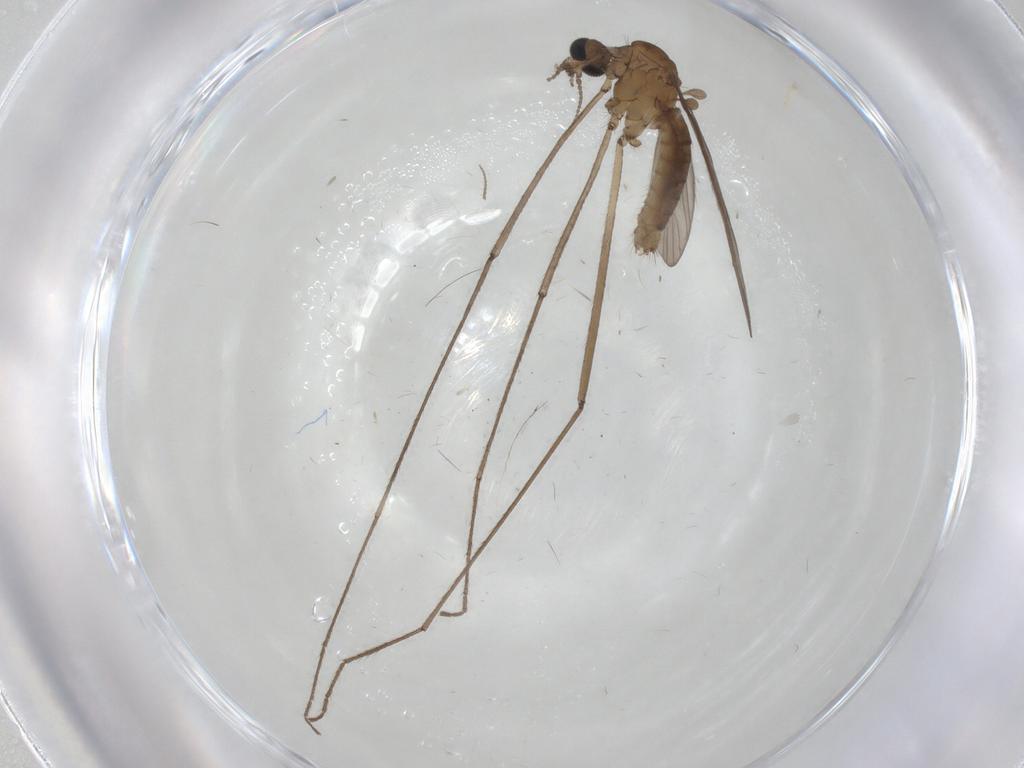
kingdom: Animalia
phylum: Arthropoda
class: Insecta
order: Diptera
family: Limoniidae
